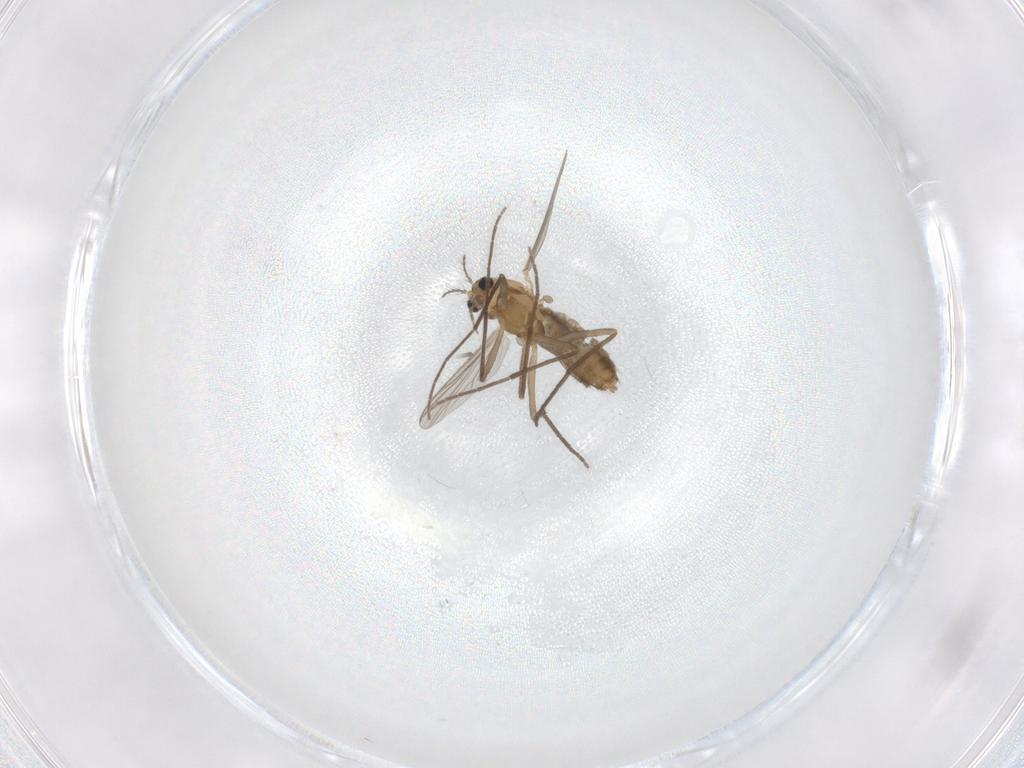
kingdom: Animalia
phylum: Arthropoda
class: Insecta
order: Diptera
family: Chironomidae
